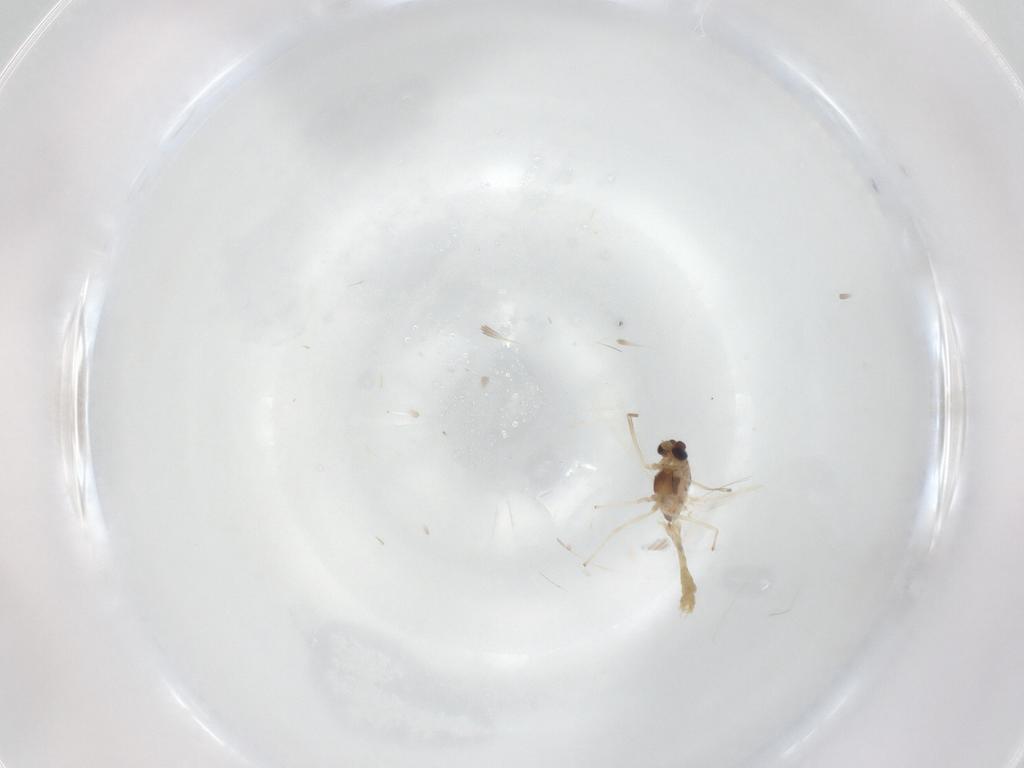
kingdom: Animalia
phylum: Arthropoda
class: Insecta
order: Diptera
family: Chironomidae
